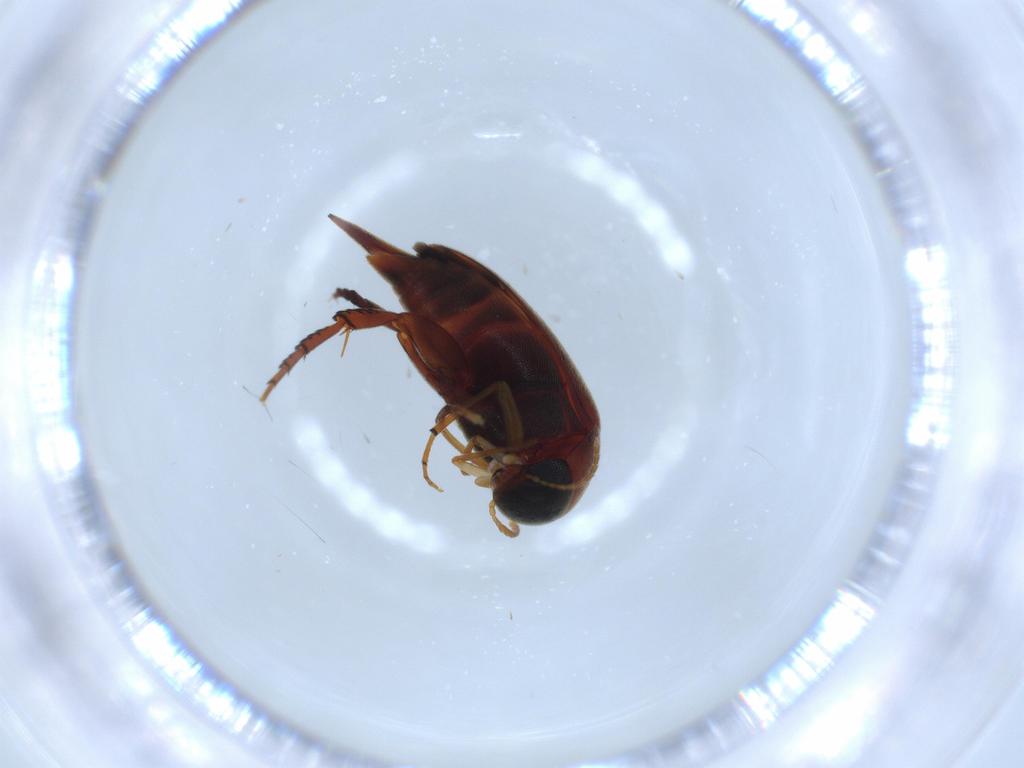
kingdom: Animalia
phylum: Arthropoda
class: Insecta
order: Coleoptera
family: Mordellidae
